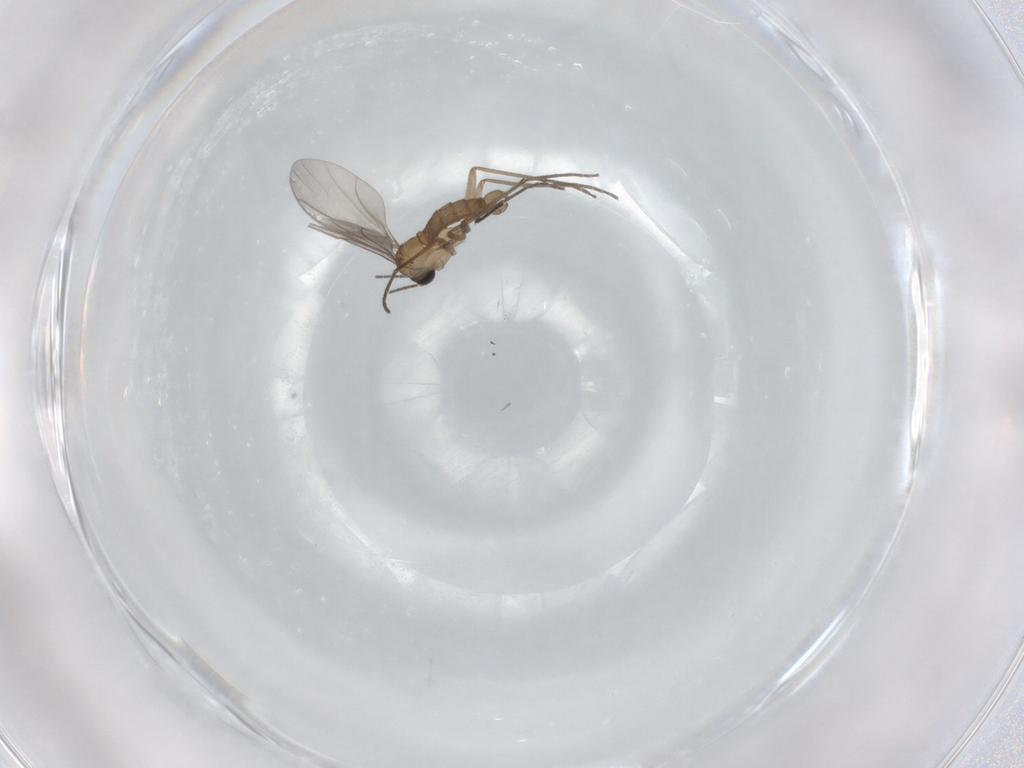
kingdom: Animalia
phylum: Arthropoda
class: Insecta
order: Diptera
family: Sciaridae
